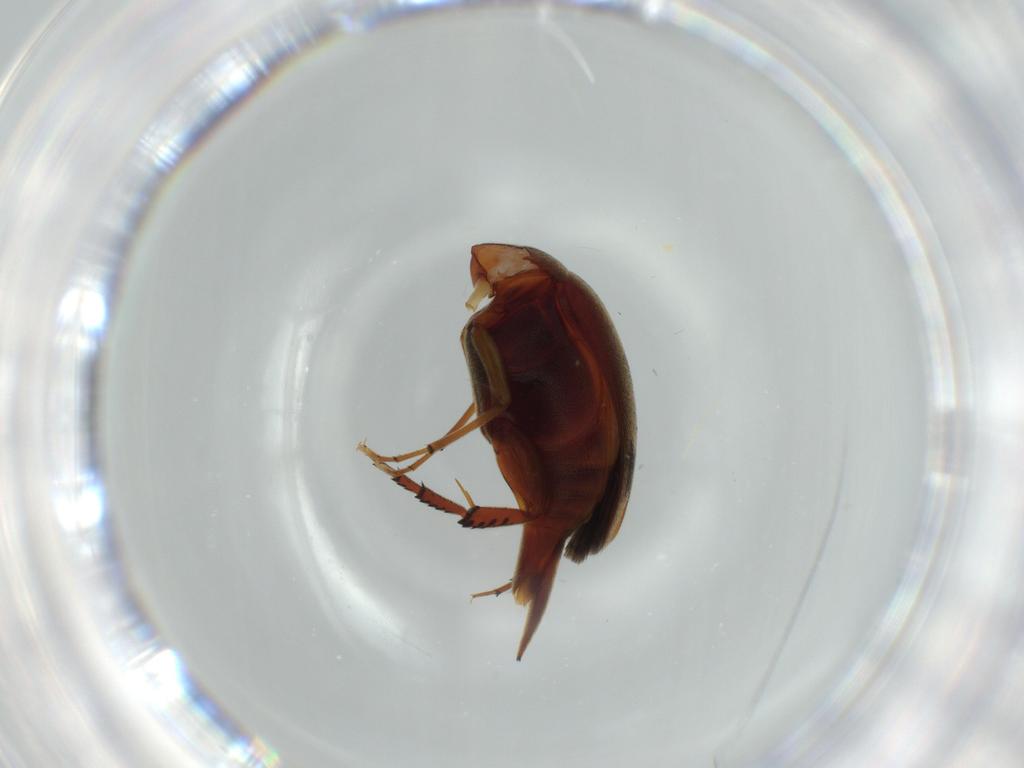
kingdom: Animalia
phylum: Arthropoda
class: Insecta
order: Coleoptera
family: Mordellidae
